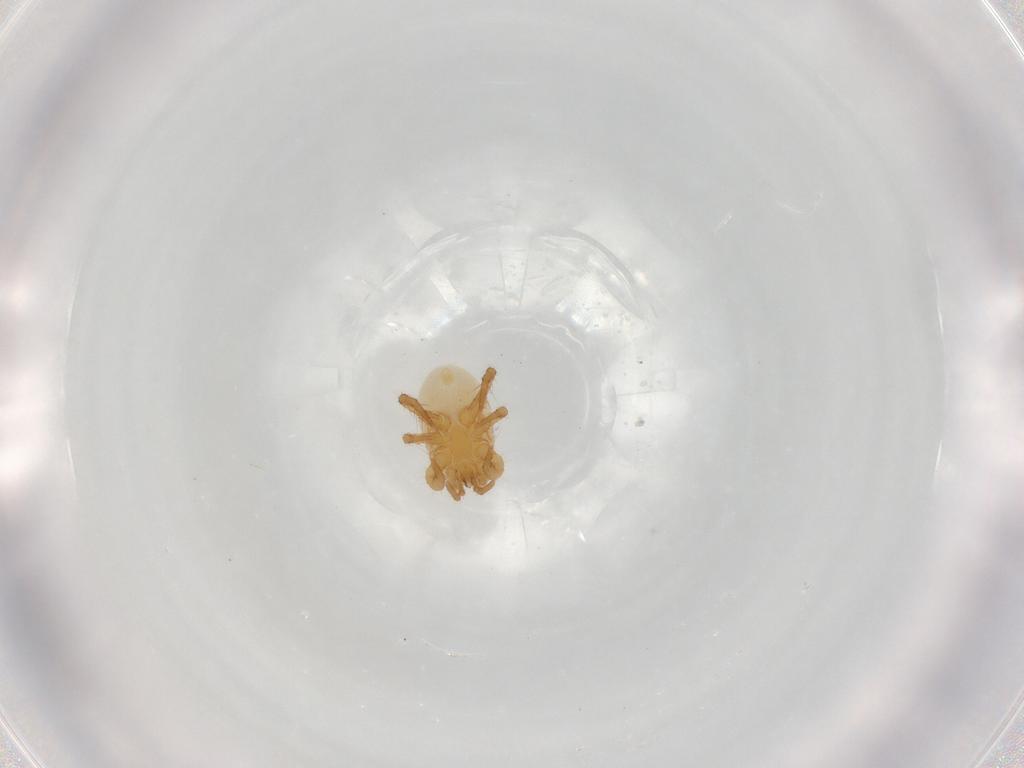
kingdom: Animalia
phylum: Arthropoda
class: Arachnida
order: Mesostigmata
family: Parasitidae
